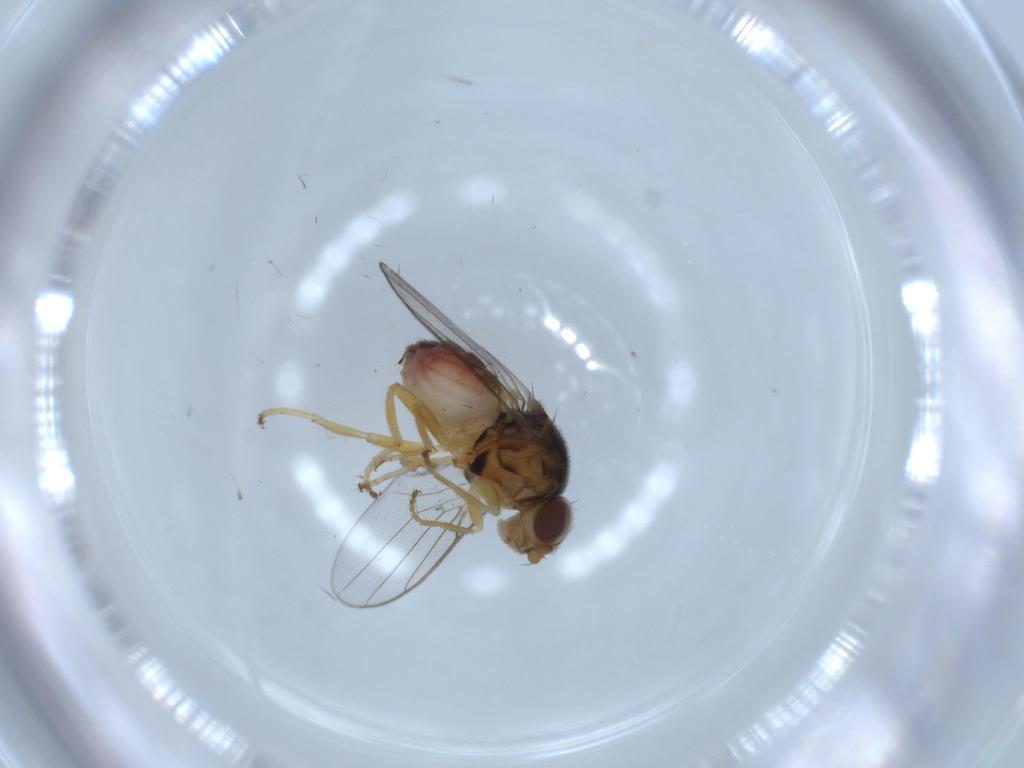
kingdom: Animalia
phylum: Arthropoda
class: Insecta
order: Diptera
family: Chloropidae
